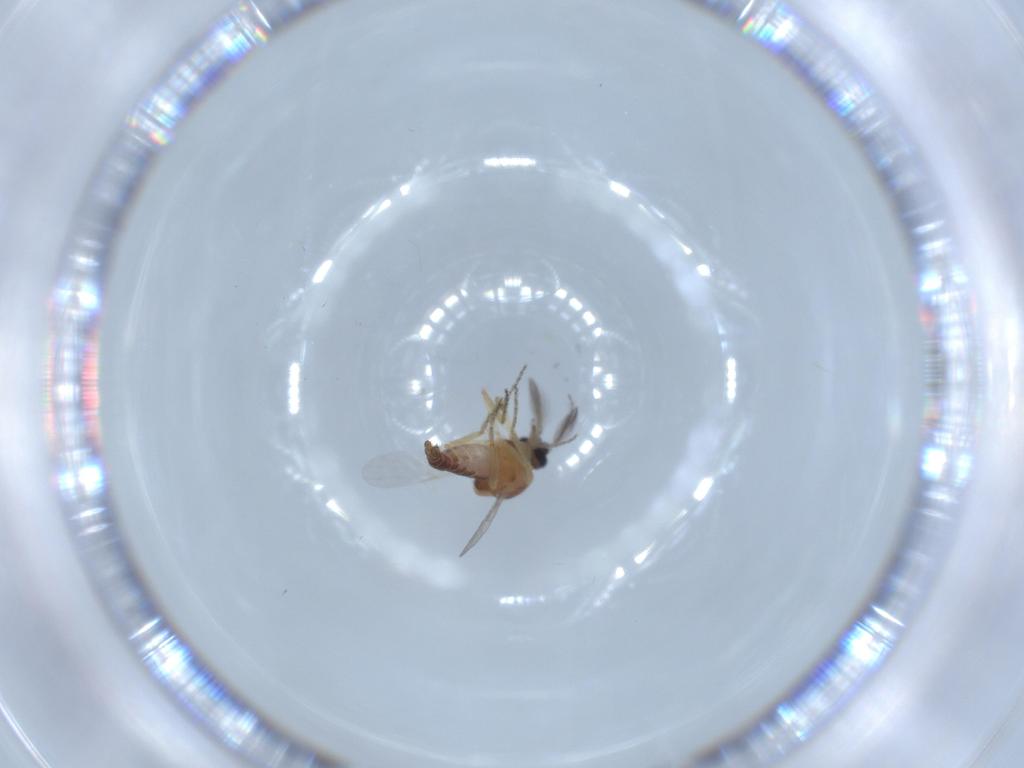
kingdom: Animalia
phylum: Arthropoda
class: Insecta
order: Diptera
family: Ceratopogonidae
